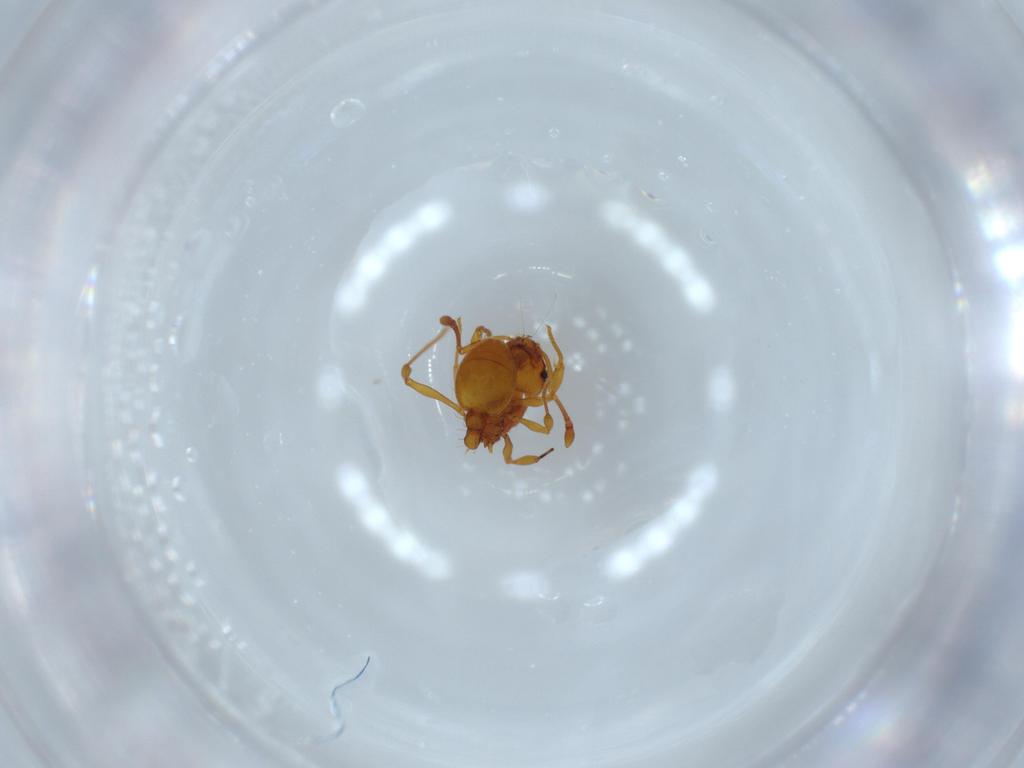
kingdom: Animalia
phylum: Arthropoda
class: Insecta
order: Hymenoptera
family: Formicidae
